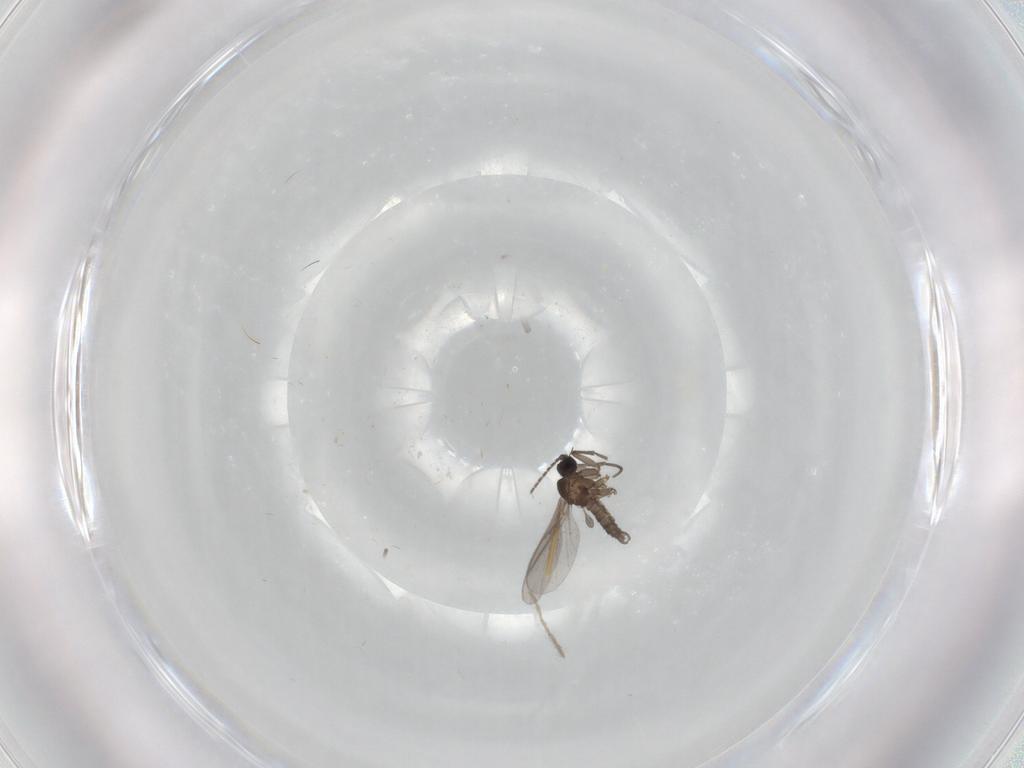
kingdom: Animalia
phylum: Arthropoda
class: Insecta
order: Diptera
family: Sciaridae
